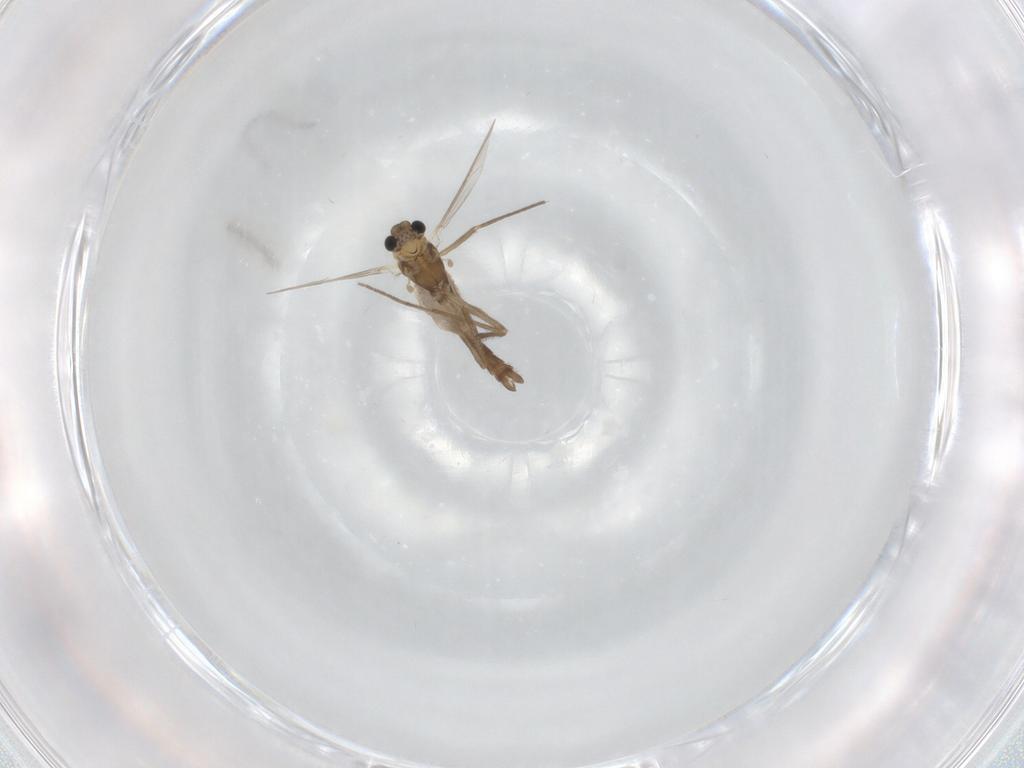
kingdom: Animalia
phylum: Arthropoda
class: Insecta
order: Diptera
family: Chironomidae
